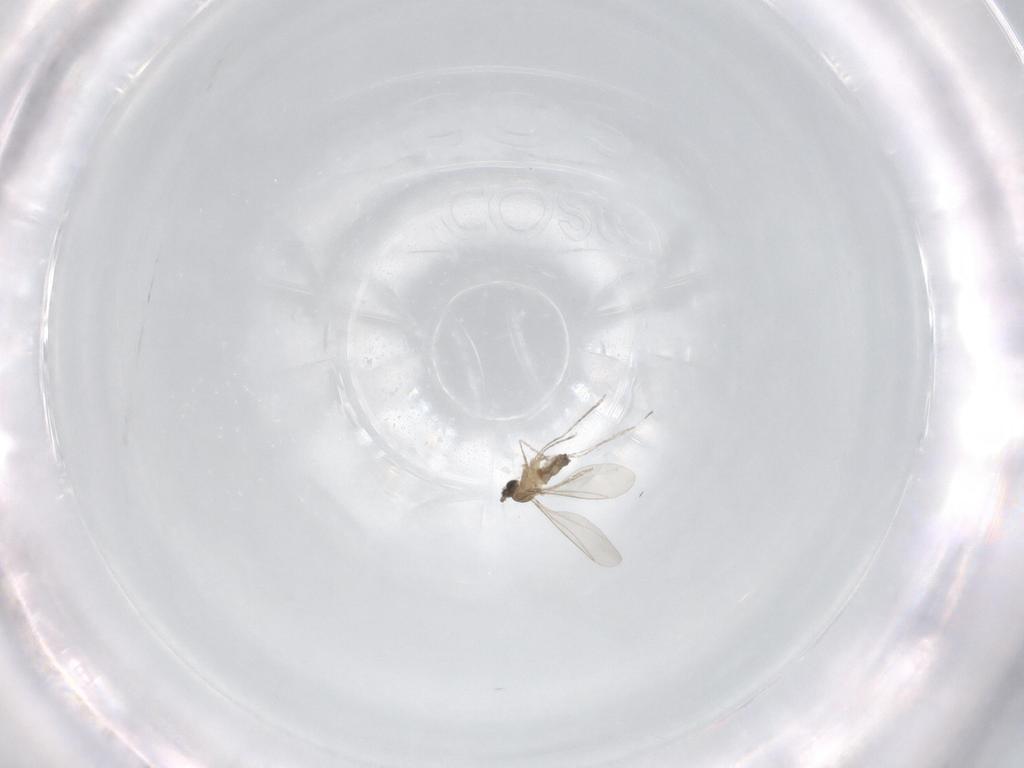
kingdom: Animalia
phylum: Arthropoda
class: Insecta
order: Diptera
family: Cecidomyiidae
